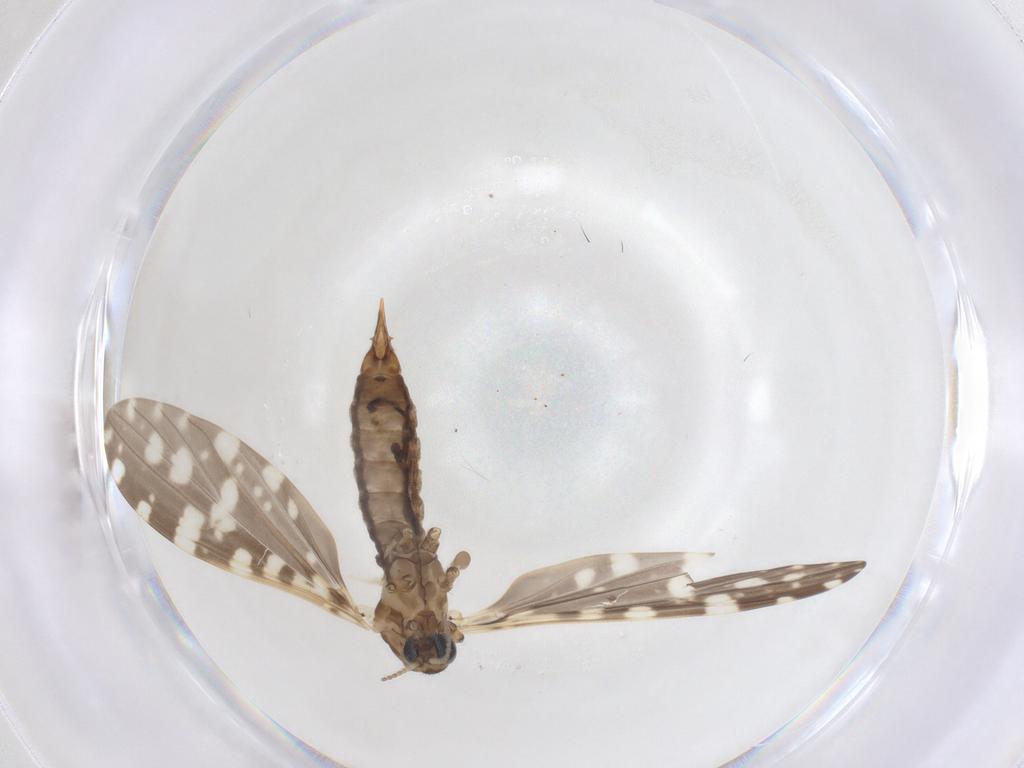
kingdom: Animalia
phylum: Arthropoda
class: Insecta
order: Diptera
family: Limoniidae
